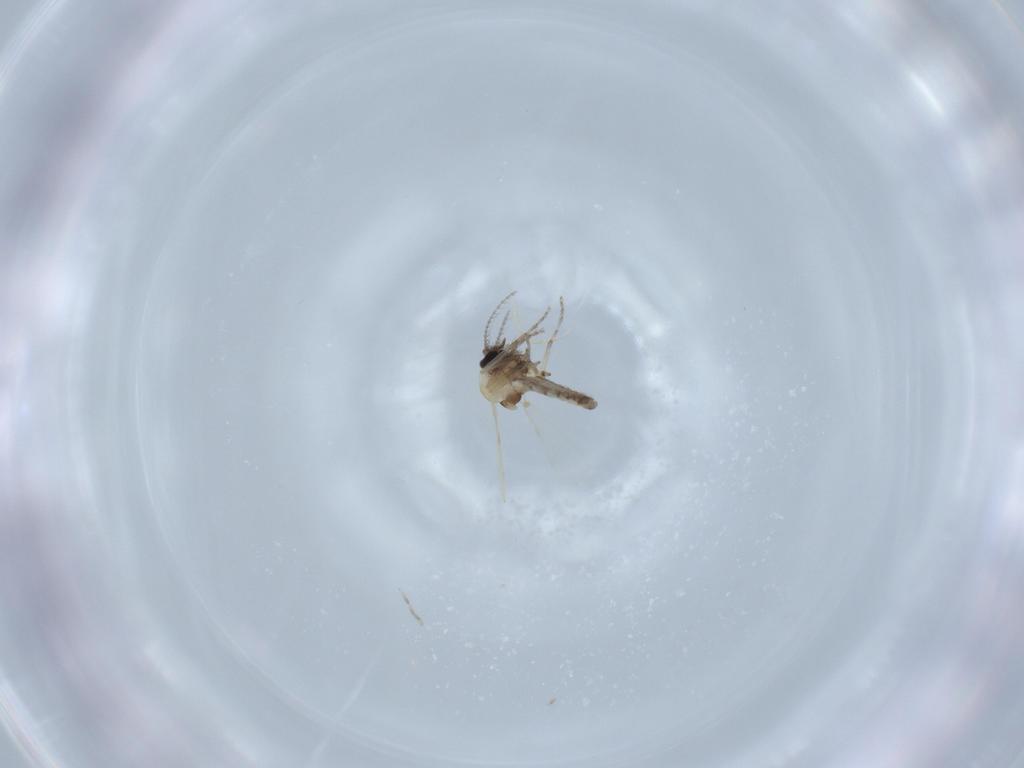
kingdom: Animalia
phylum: Arthropoda
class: Insecta
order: Diptera
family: Ceratopogonidae
